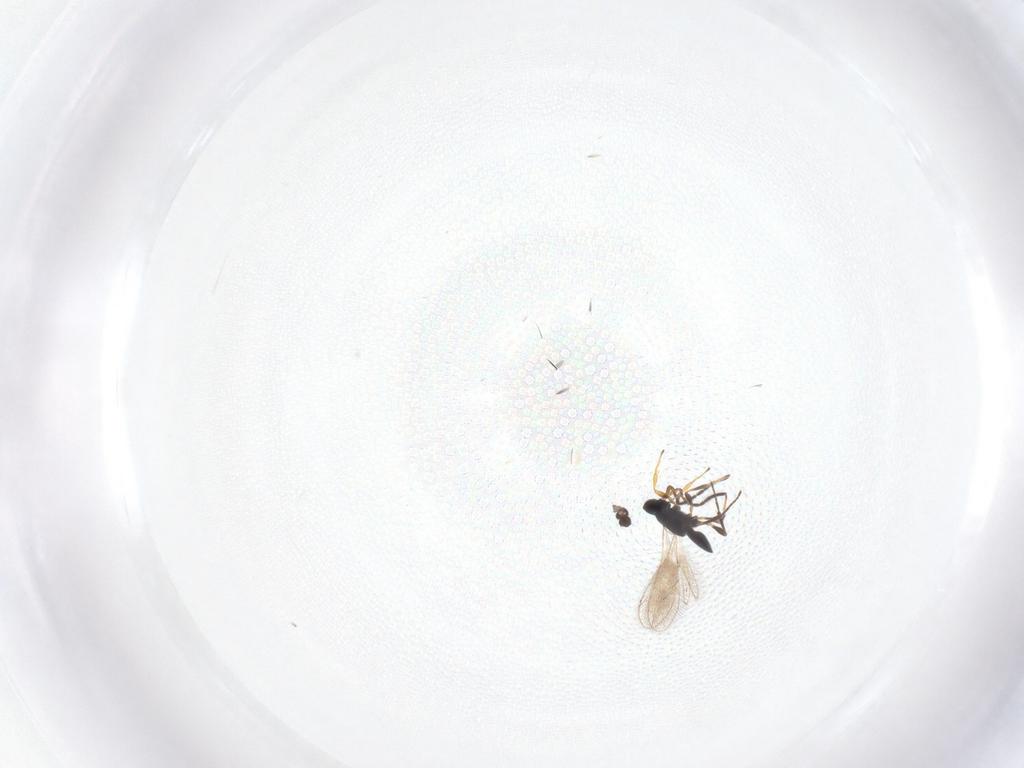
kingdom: Animalia
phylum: Arthropoda
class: Insecta
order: Hymenoptera
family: Platygastridae
